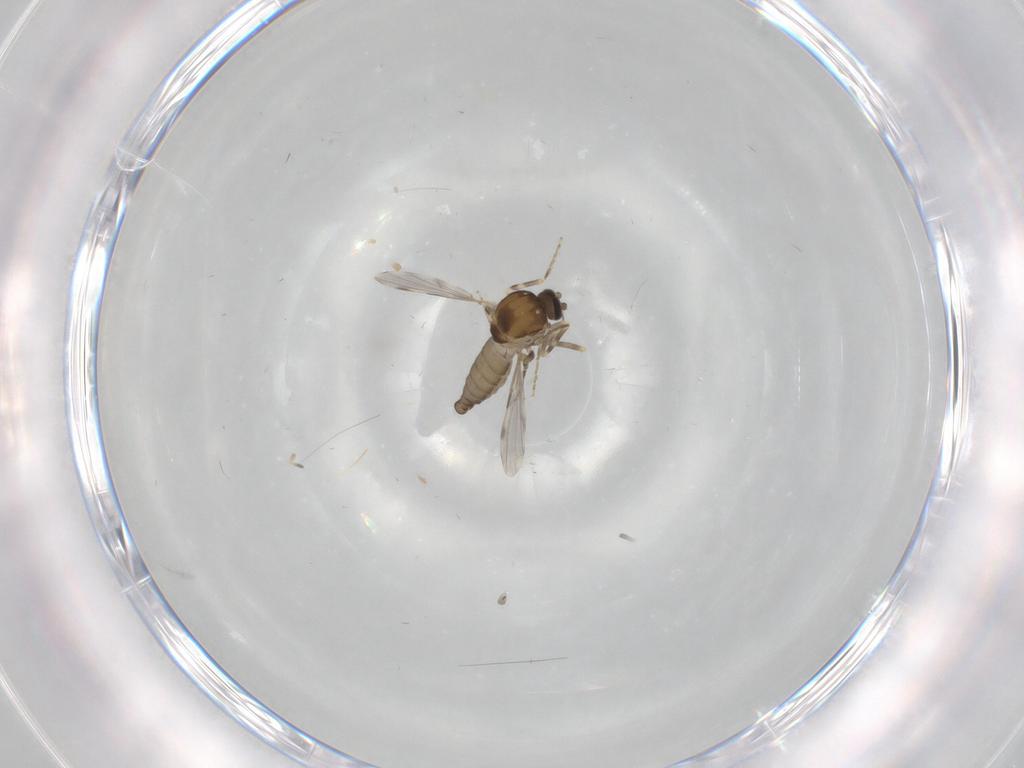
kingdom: Animalia
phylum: Arthropoda
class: Insecta
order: Diptera
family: Ceratopogonidae
